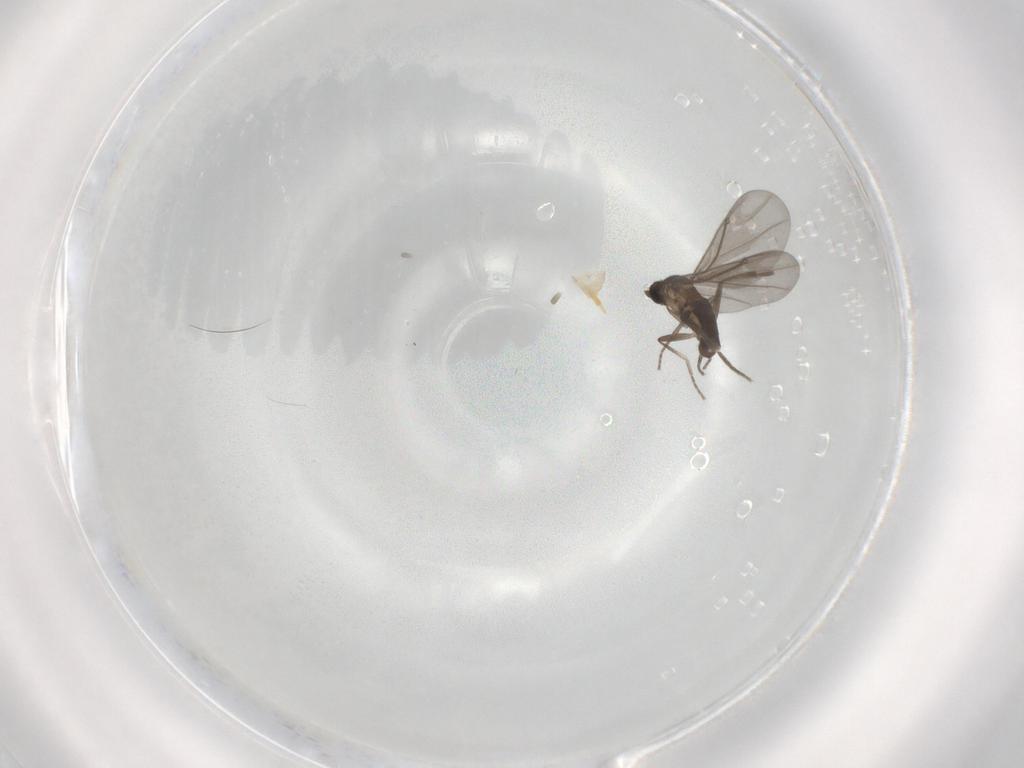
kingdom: Animalia
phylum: Arthropoda
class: Insecta
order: Diptera
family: Phoridae
